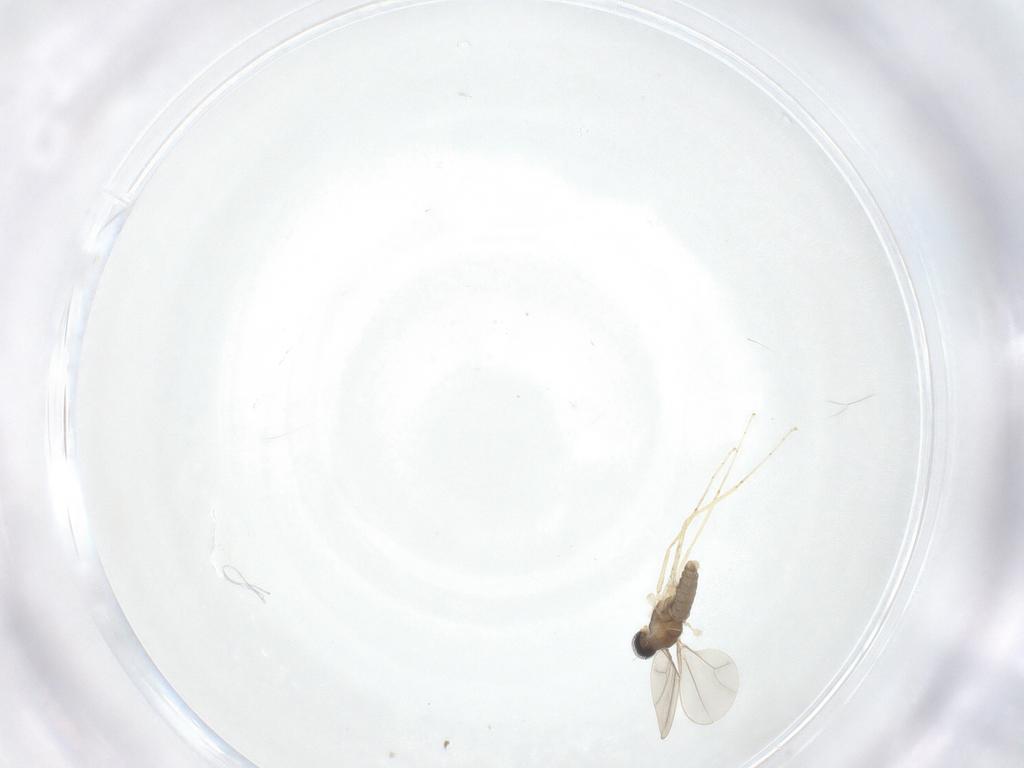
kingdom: Animalia
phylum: Arthropoda
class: Insecta
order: Diptera
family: Cecidomyiidae
